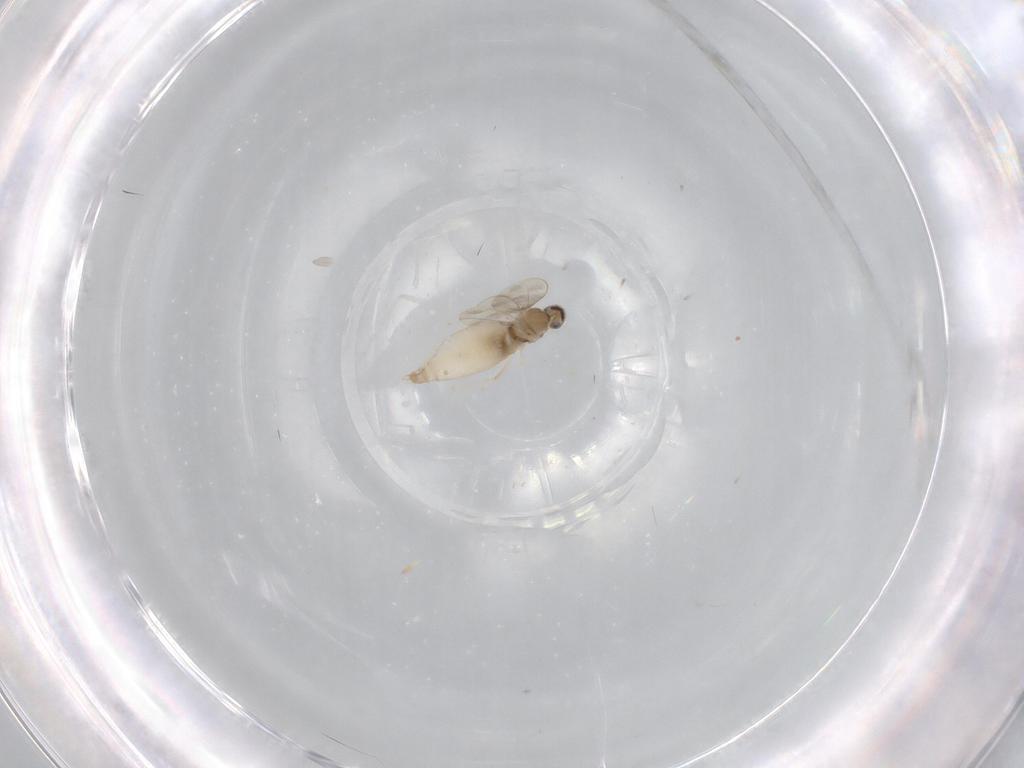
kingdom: Animalia
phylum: Arthropoda
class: Insecta
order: Diptera
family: Cecidomyiidae
